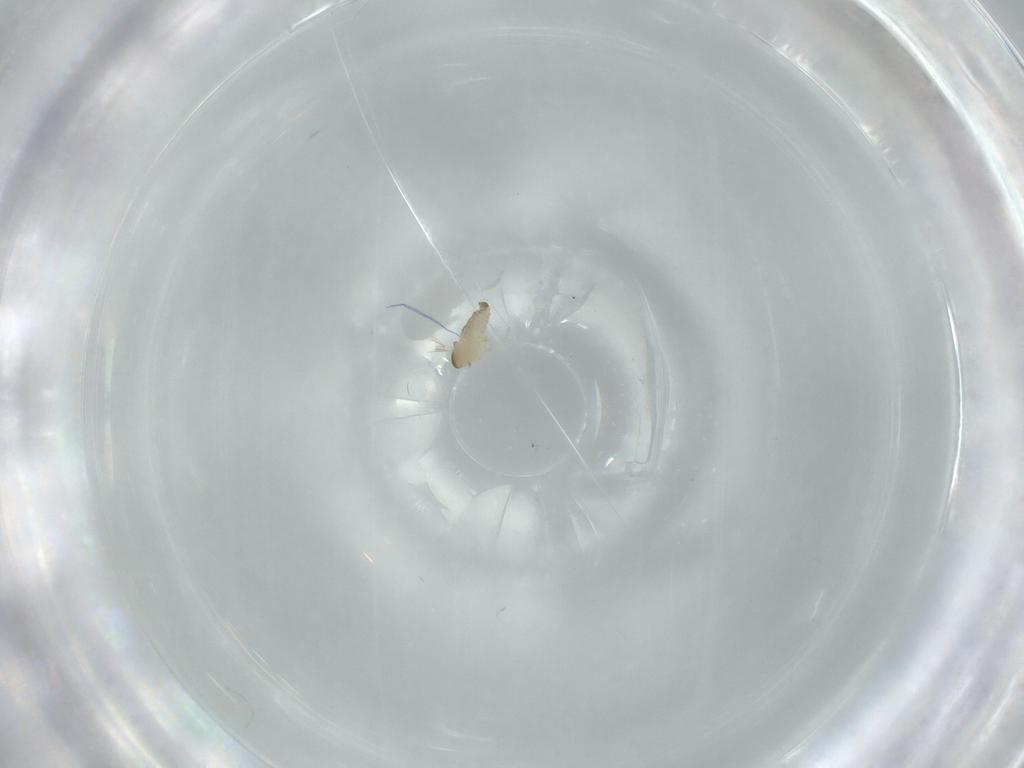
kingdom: Animalia
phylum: Arthropoda
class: Insecta
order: Diptera
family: Cecidomyiidae
